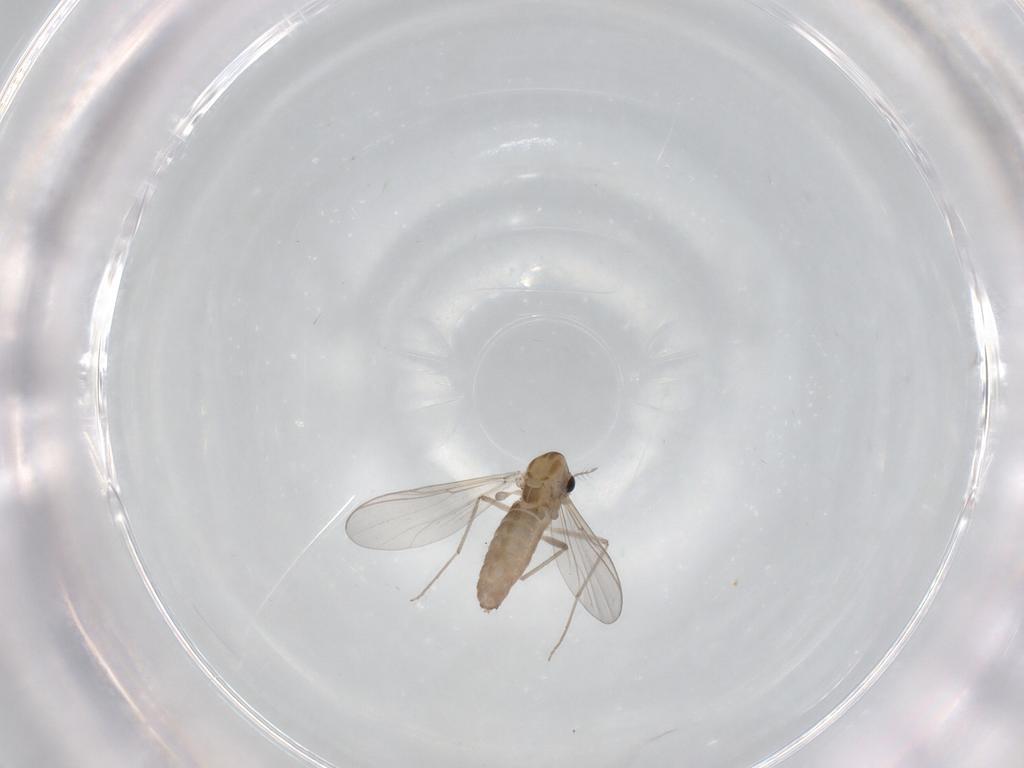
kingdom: Animalia
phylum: Arthropoda
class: Insecta
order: Diptera
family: Chironomidae
